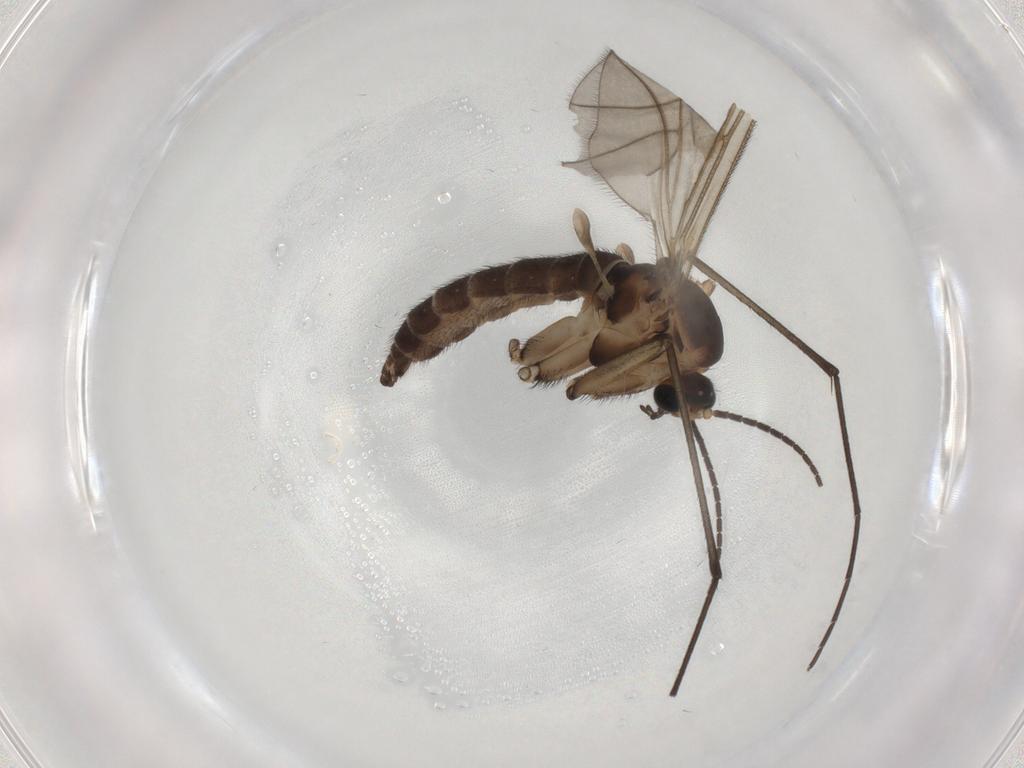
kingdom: Animalia
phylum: Arthropoda
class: Insecta
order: Diptera
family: Sciaridae
